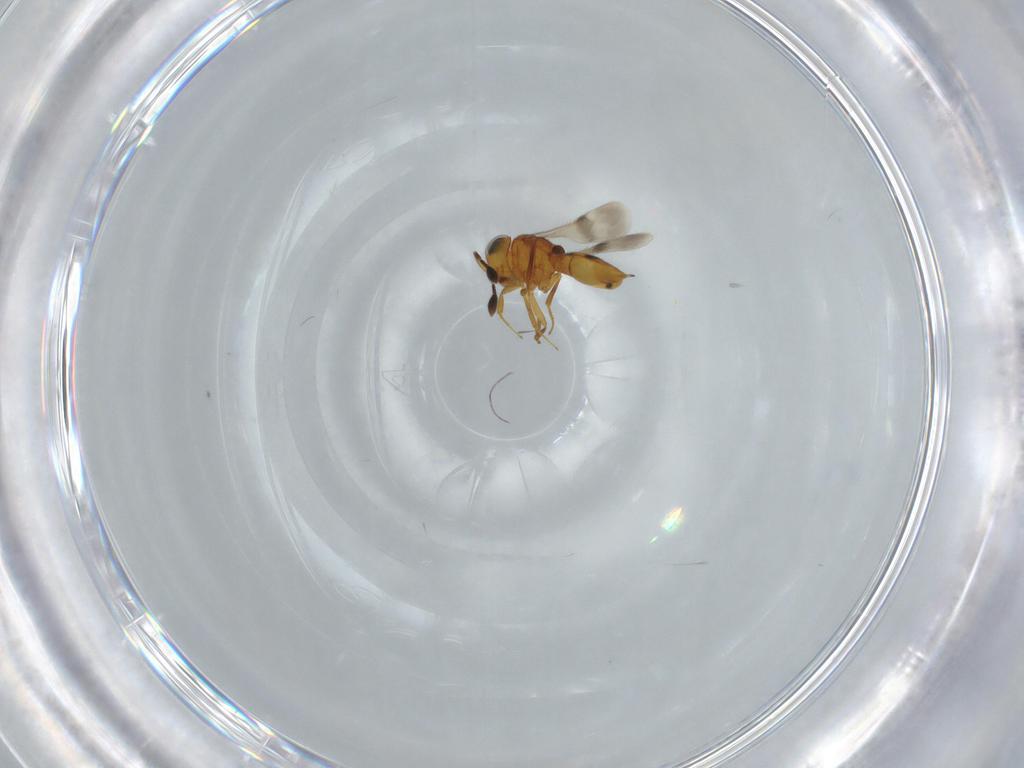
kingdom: Animalia
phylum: Arthropoda
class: Insecta
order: Hymenoptera
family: Scelionidae
